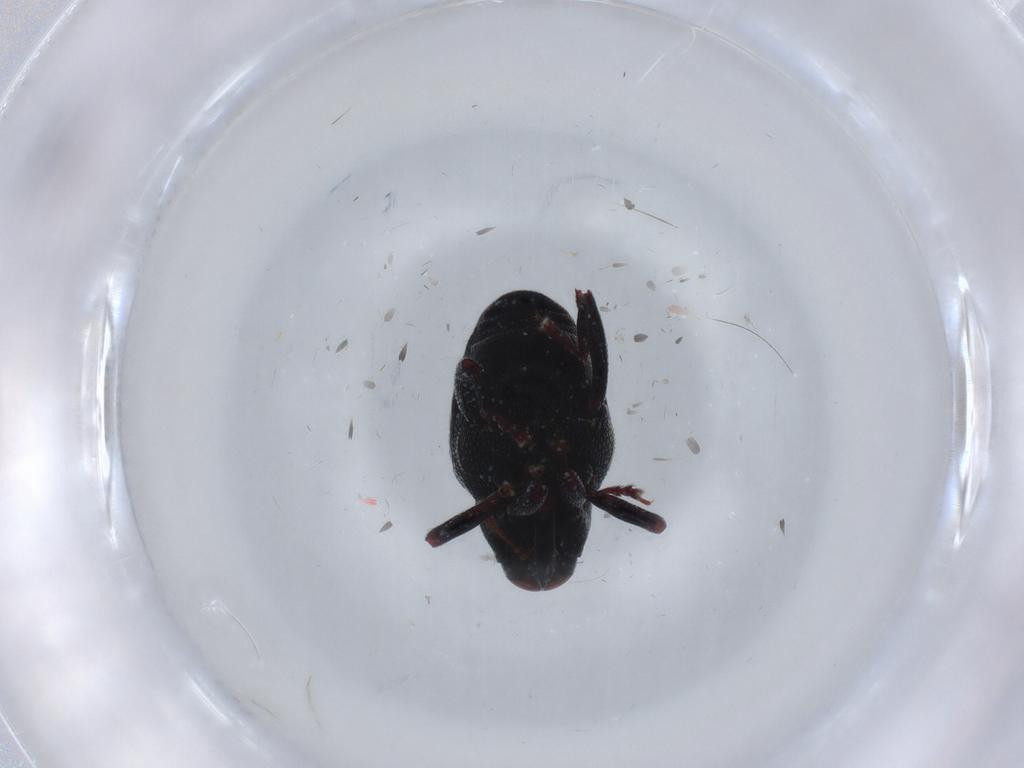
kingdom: Animalia
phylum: Arthropoda
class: Insecta
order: Coleoptera
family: Curculionidae
